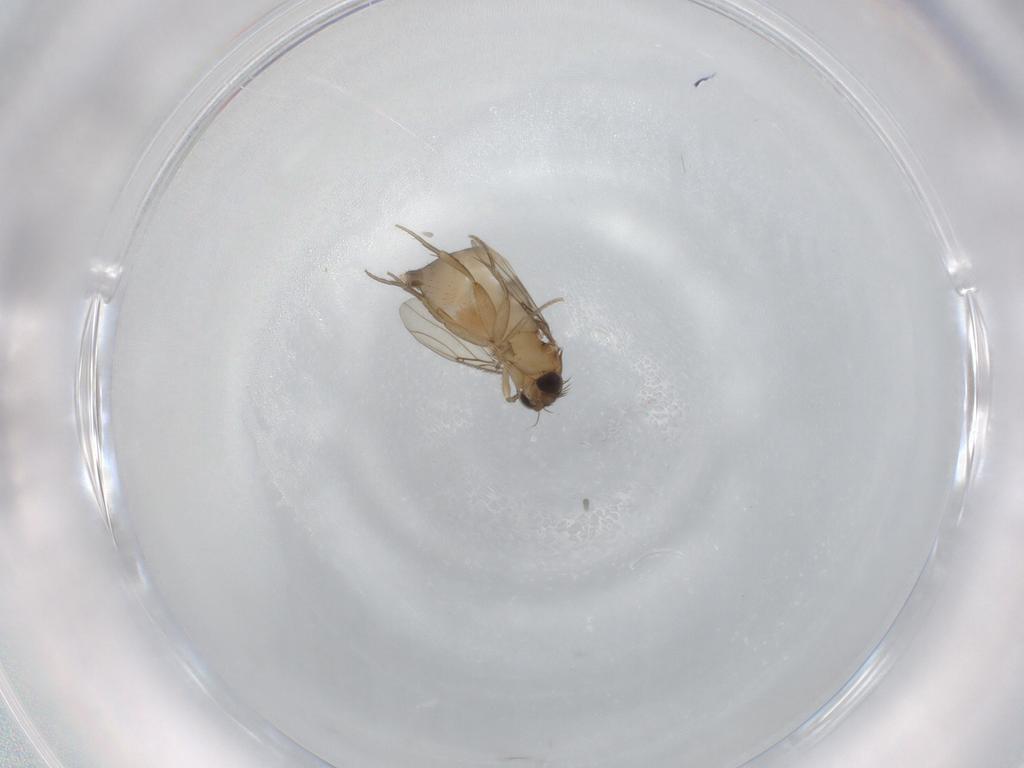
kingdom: Animalia
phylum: Arthropoda
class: Insecta
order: Diptera
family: Phoridae
